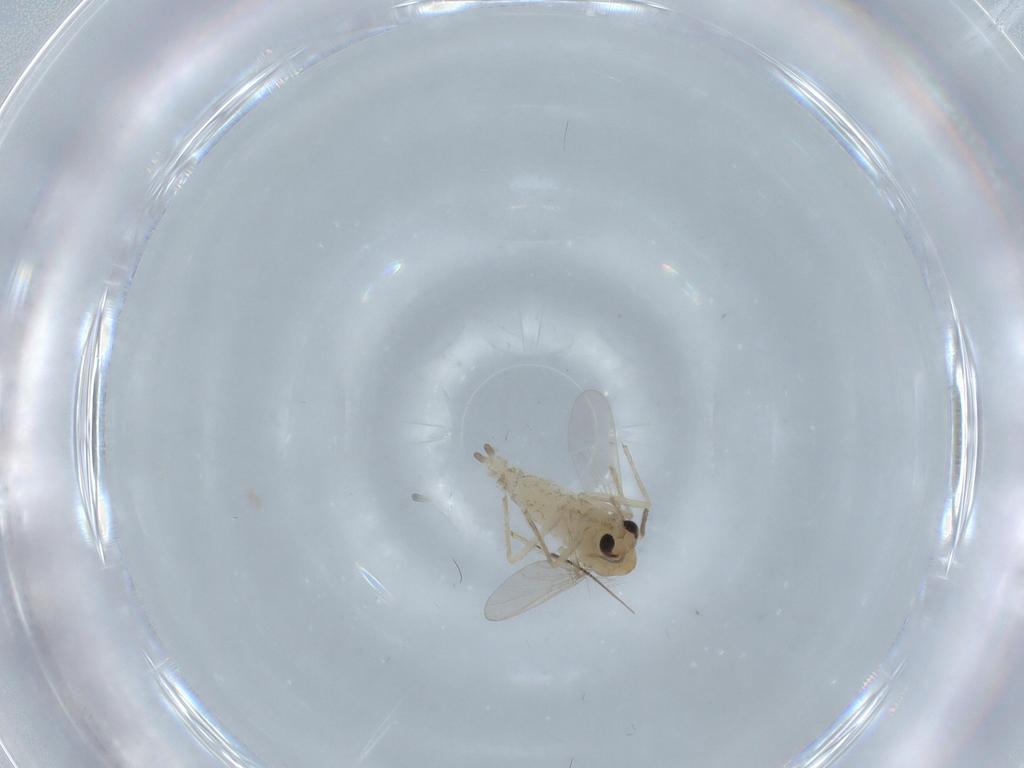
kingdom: Animalia
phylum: Arthropoda
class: Insecta
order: Diptera
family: Chironomidae
